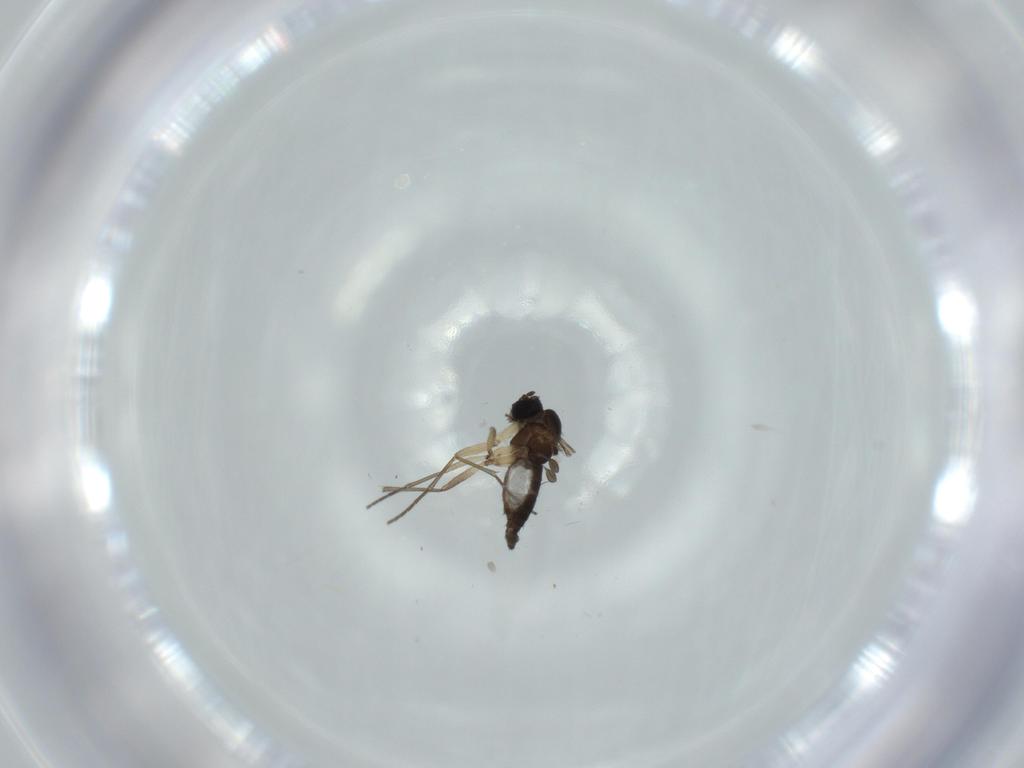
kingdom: Animalia
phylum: Arthropoda
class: Insecta
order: Diptera
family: Sciaridae
